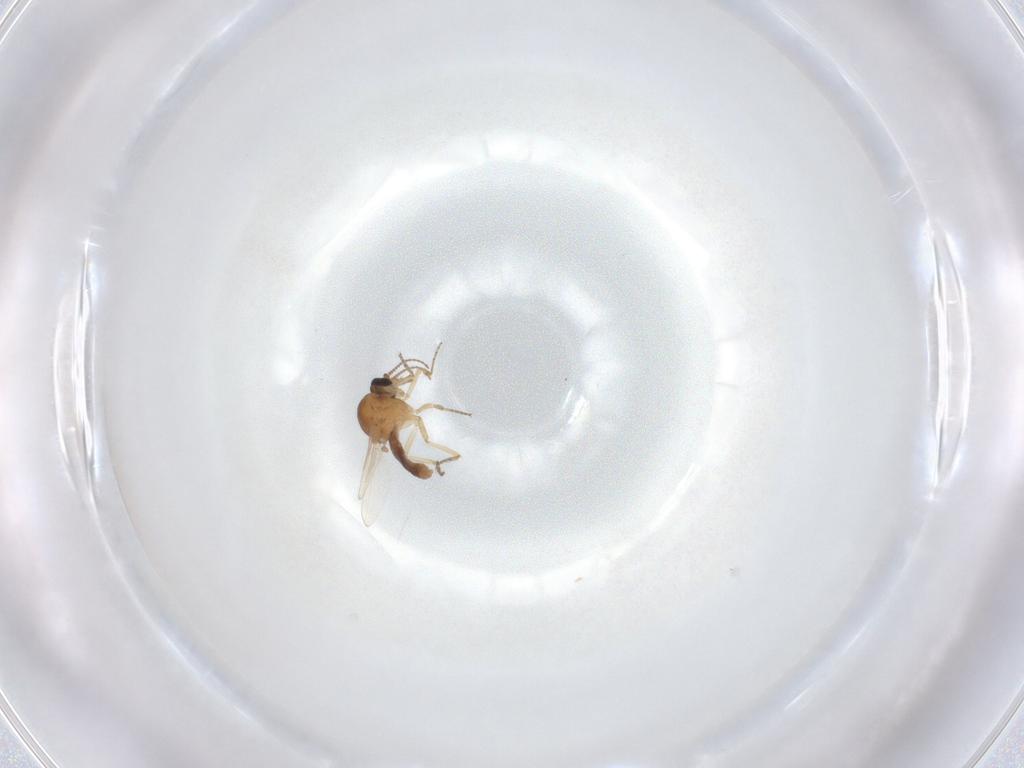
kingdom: Animalia
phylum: Arthropoda
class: Insecta
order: Diptera
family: Ceratopogonidae
